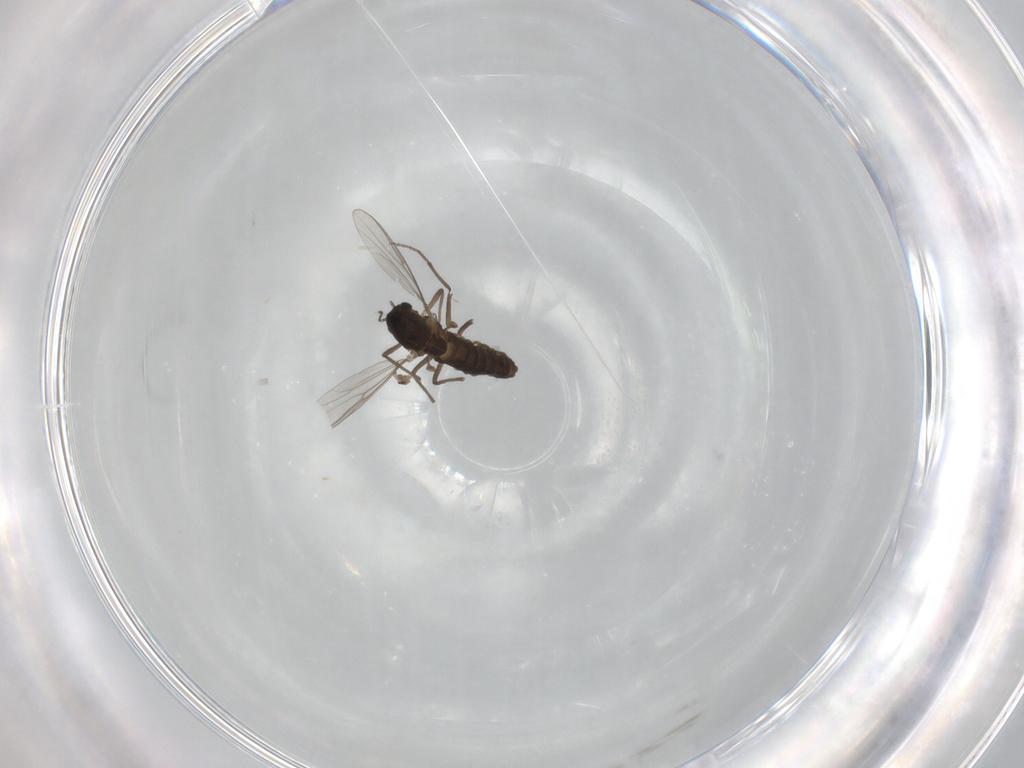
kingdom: Animalia
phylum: Arthropoda
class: Insecta
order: Diptera
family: Chironomidae
